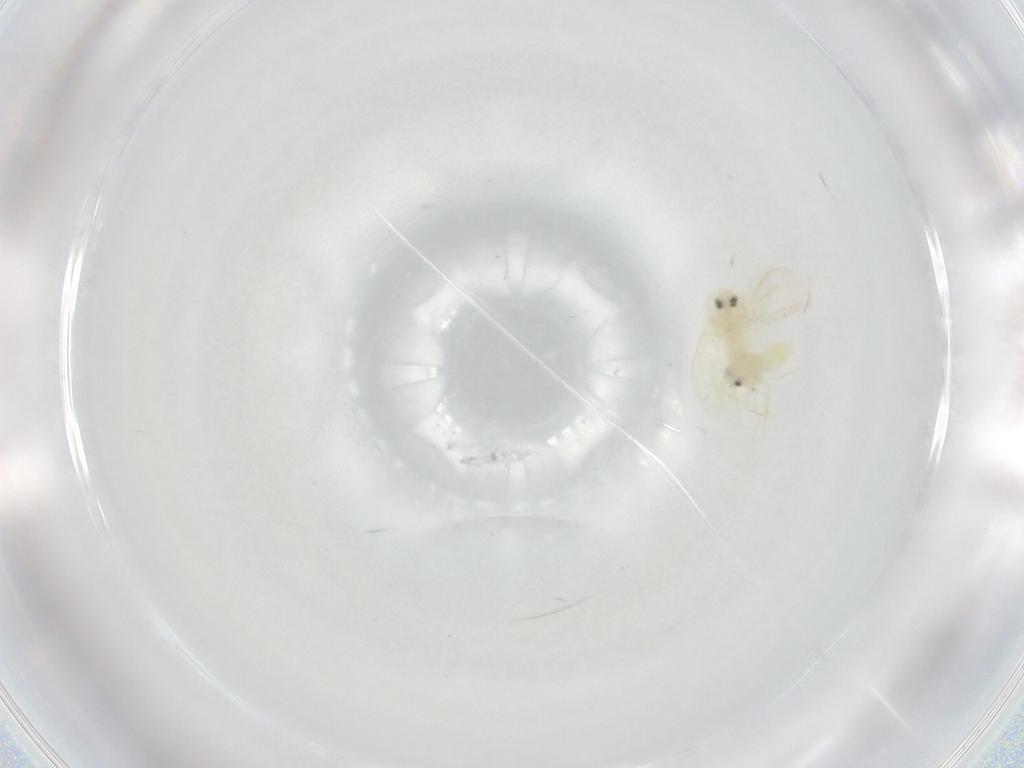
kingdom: Animalia
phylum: Arthropoda
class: Insecta
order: Hemiptera
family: Aleyrodidae
